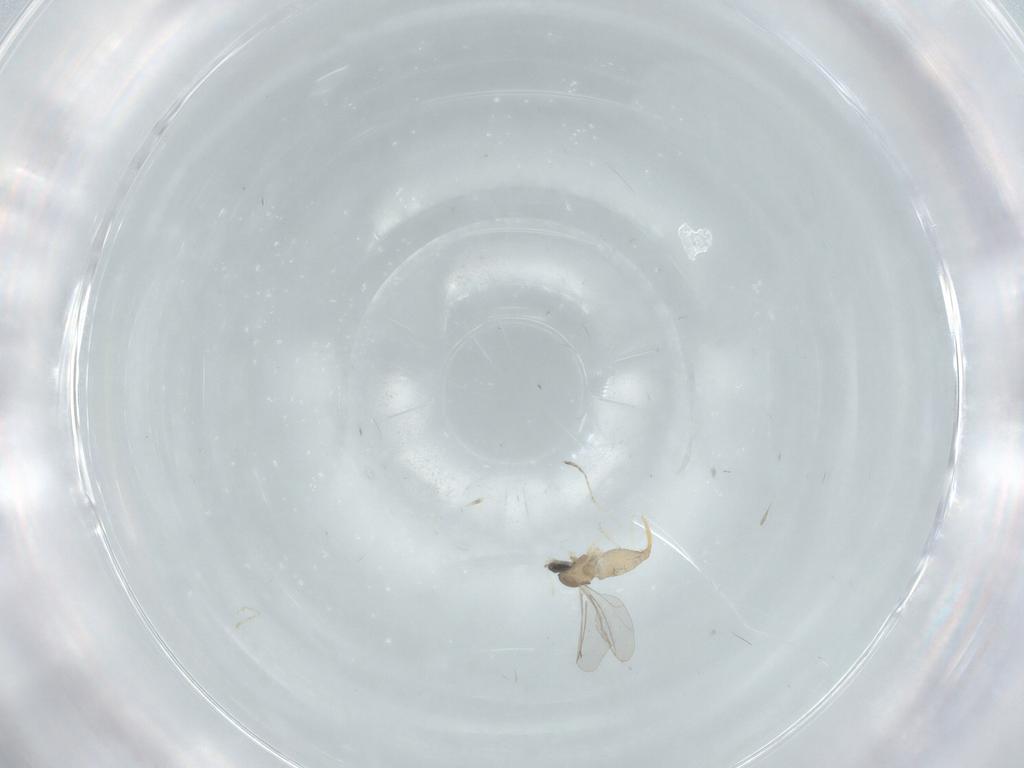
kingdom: Animalia
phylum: Arthropoda
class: Insecta
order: Diptera
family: Cecidomyiidae
